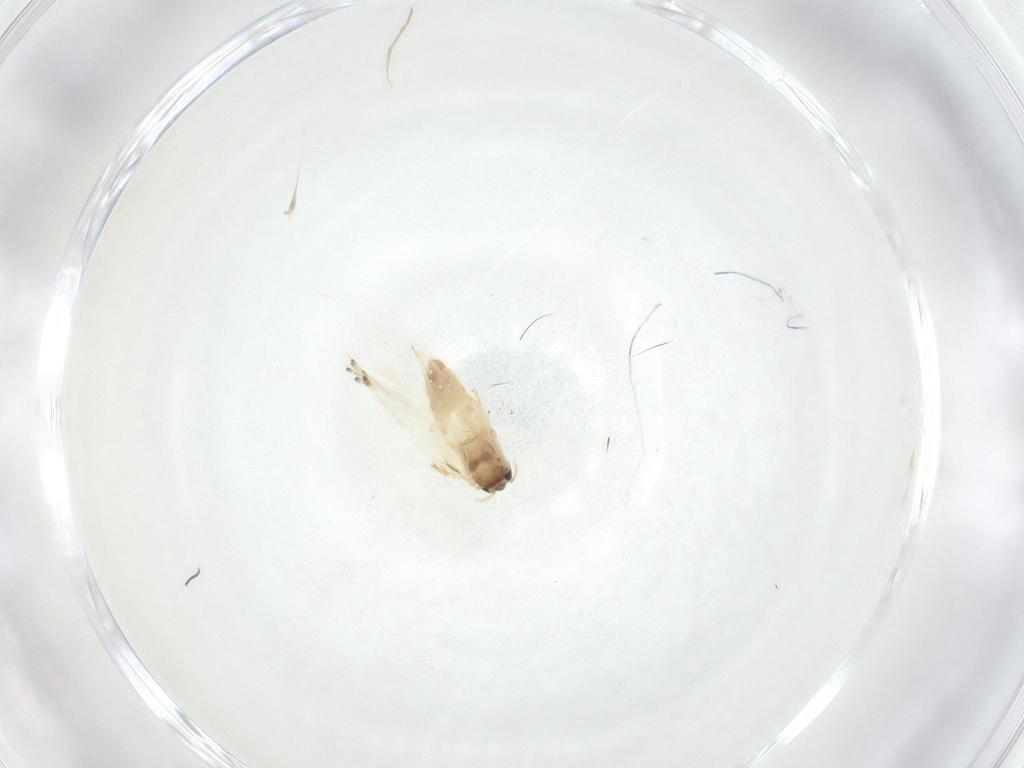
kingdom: Animalia
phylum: Arthropoda
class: Insecta
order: Lepidoptera
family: Crambidae
